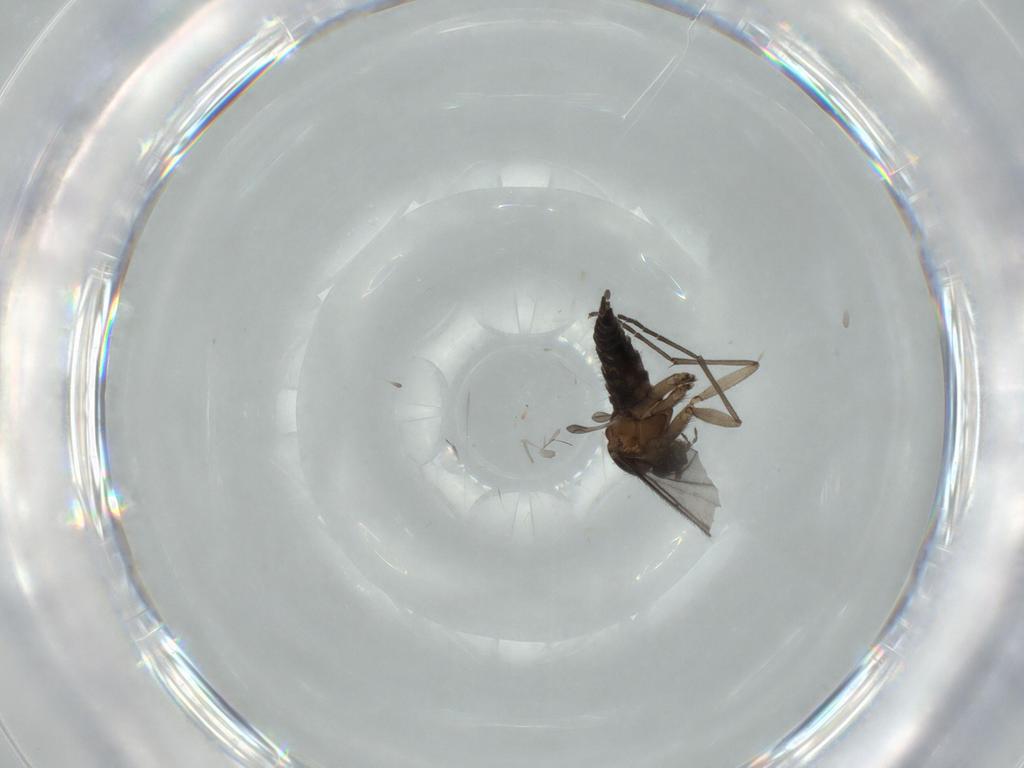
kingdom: Animalia
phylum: Arthropoda
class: Insecta
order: Diptera
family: Sciaridae
